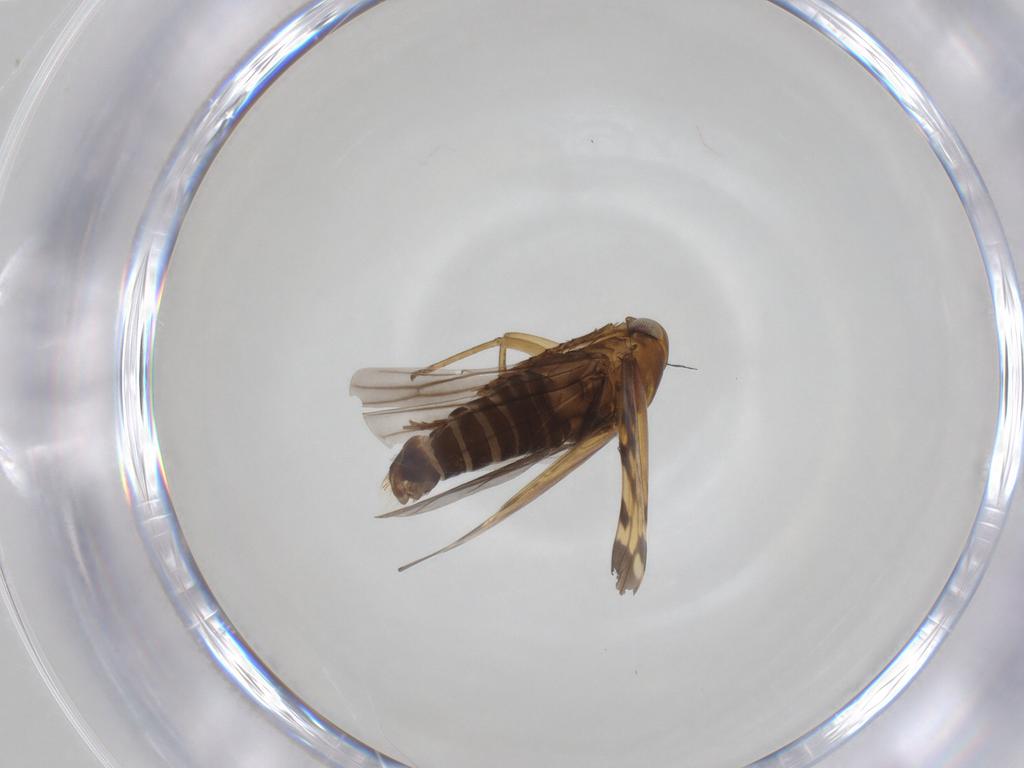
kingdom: Animalia
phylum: Arthropoda
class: Insecta
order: Hemiptera
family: Cicadellidae
